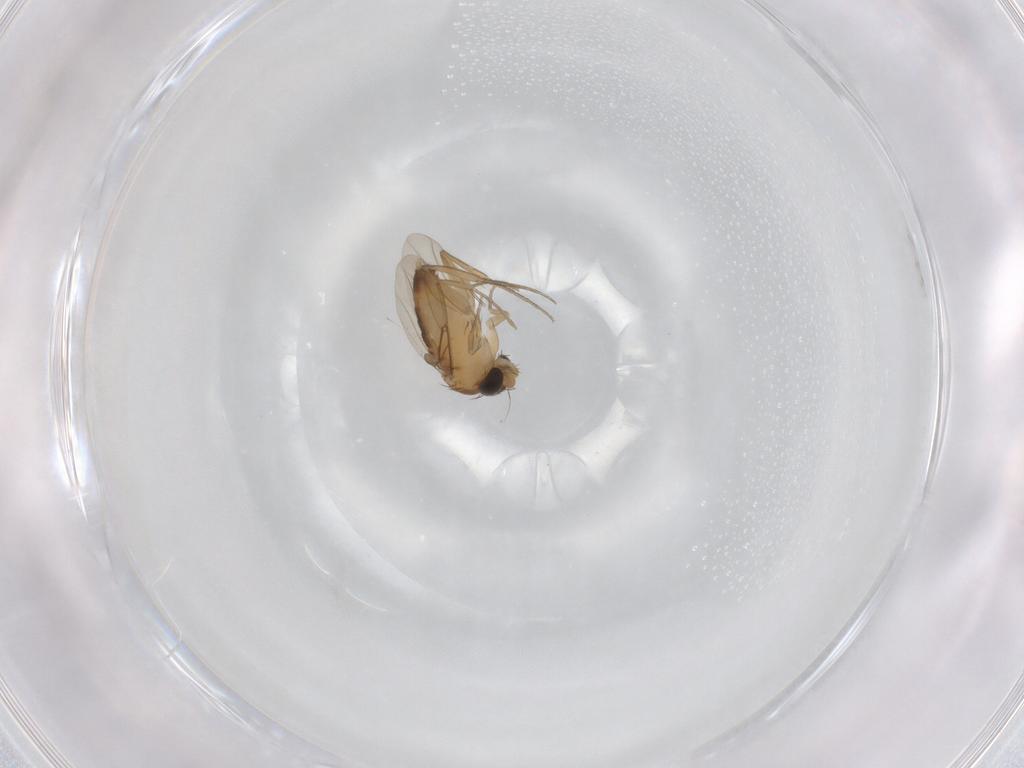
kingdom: Animalia
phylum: Arthropoda
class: Insecta
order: Diptera
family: Phoridae
